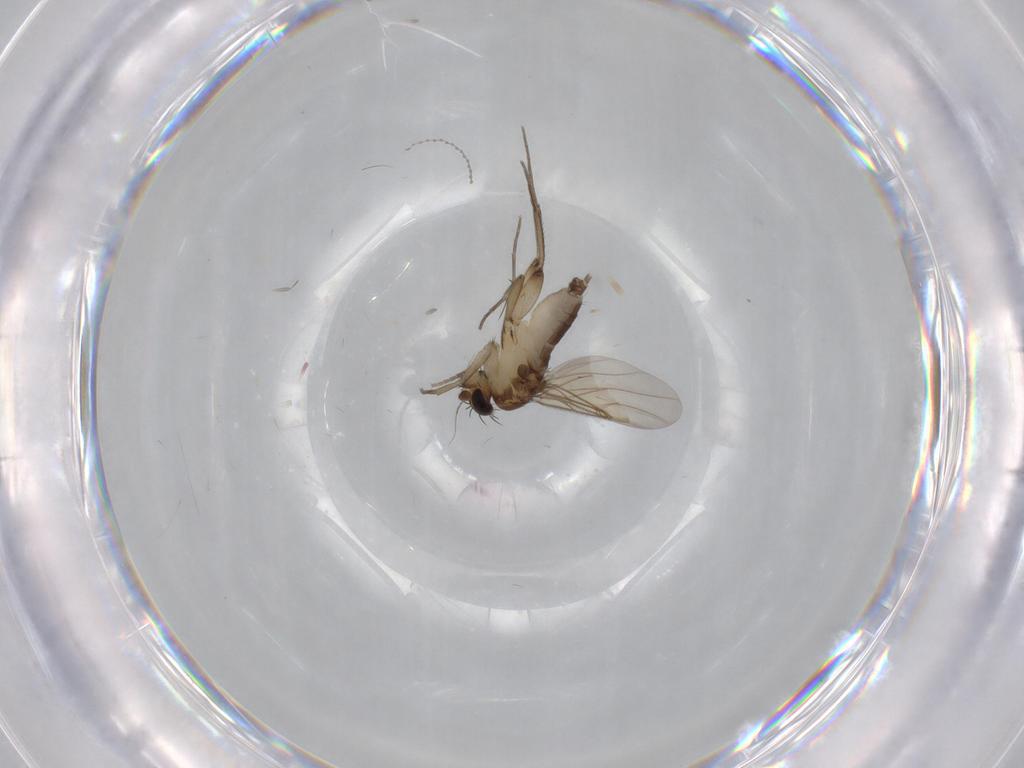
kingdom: Animalia
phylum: Arthropoda
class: Insecta
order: Diptera
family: Phoridae
